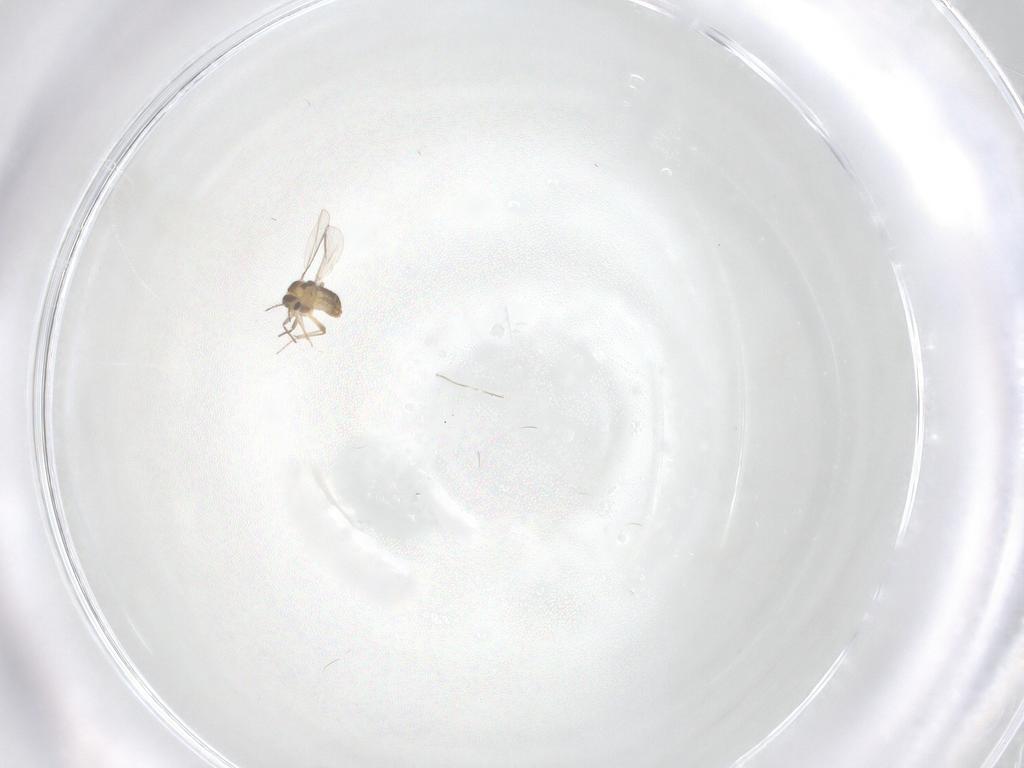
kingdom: Animalia
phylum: Arthropoda
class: Insecta
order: Diptera
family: Chironomidae
